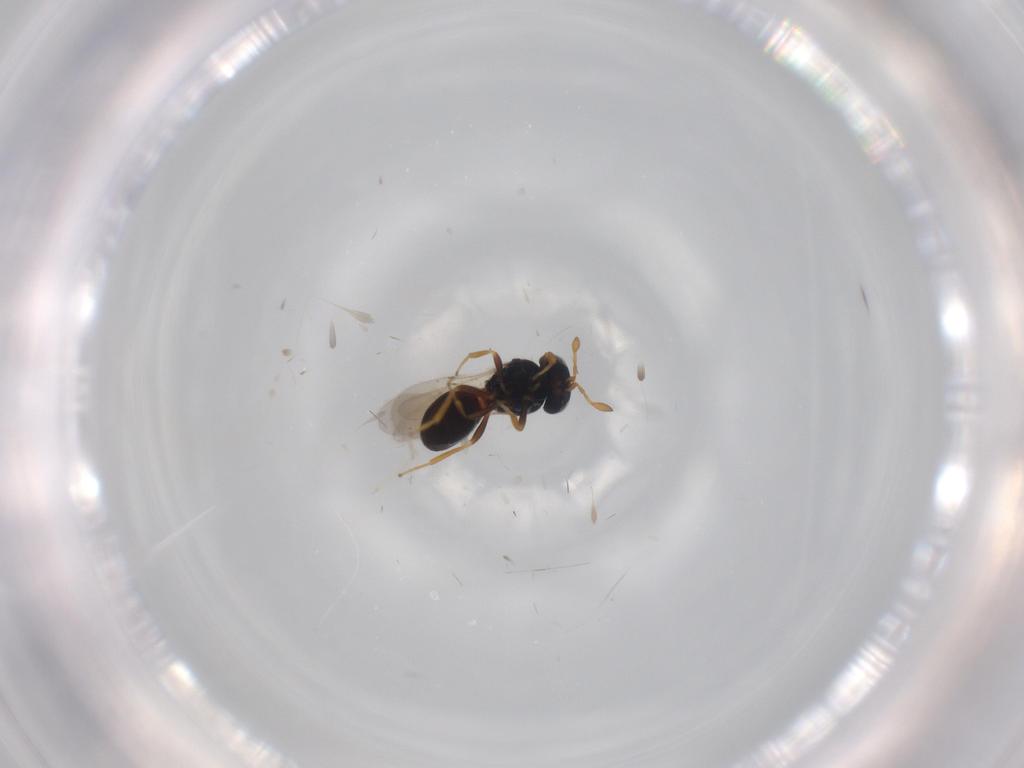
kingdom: Animalia
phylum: Arthropoda
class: Insecta
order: Hymenoptera
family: Scelionidae
